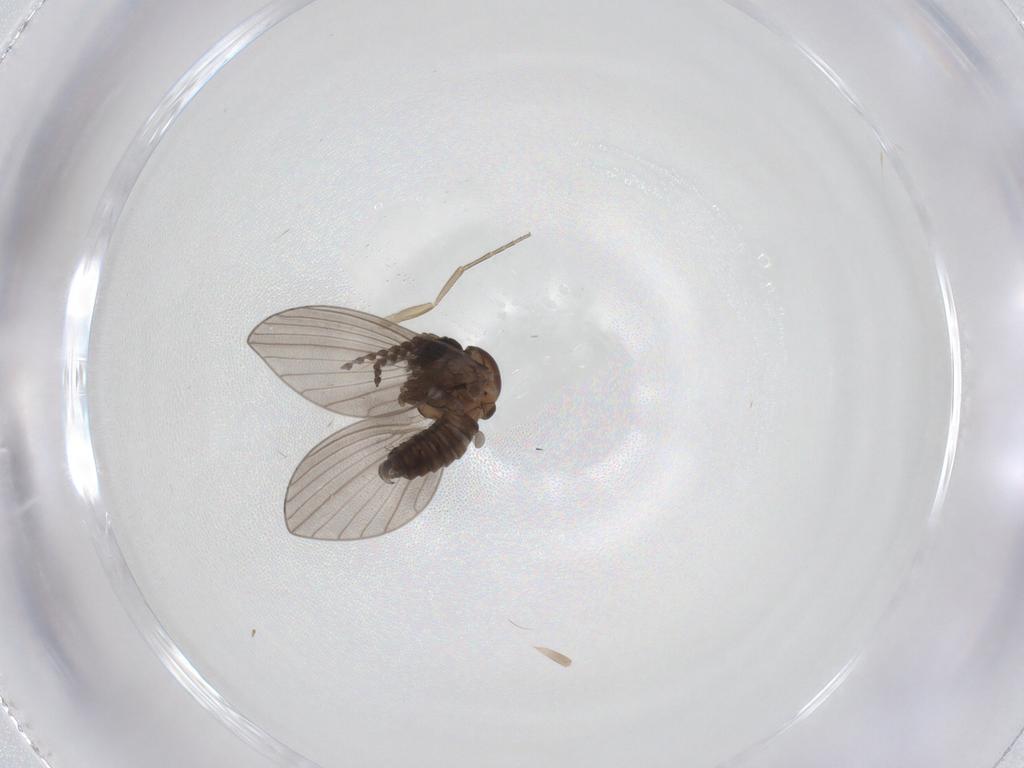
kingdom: Animalia
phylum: Arthropoda
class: Insecta
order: Diptera
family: Psychodidae
